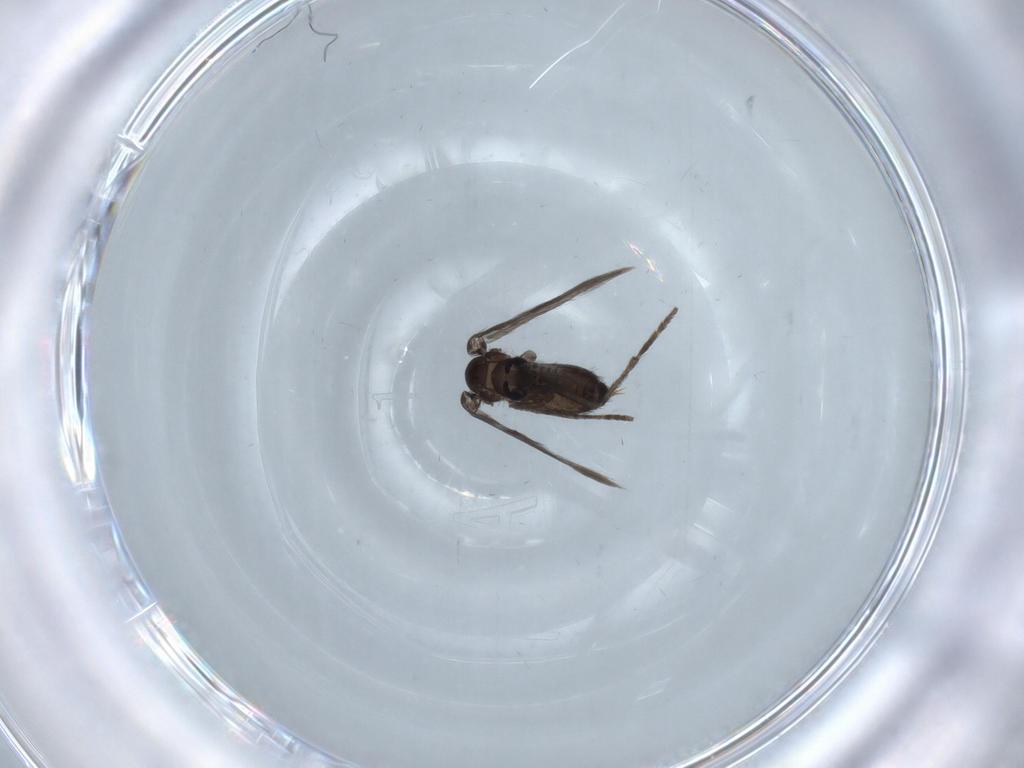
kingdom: Animalia
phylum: Arthropoda
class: Insecta
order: Diptera
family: Psychodidae
